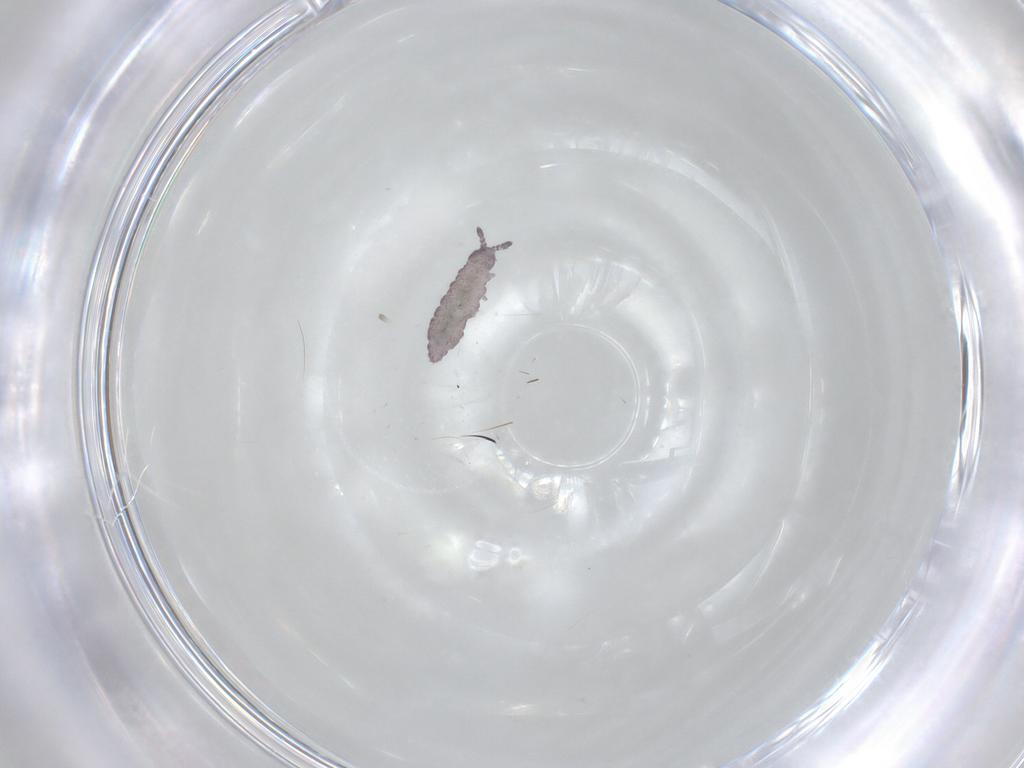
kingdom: Animalia
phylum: Arthropoda
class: Collembola
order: Poduromorpha
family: Hypogastruridae
